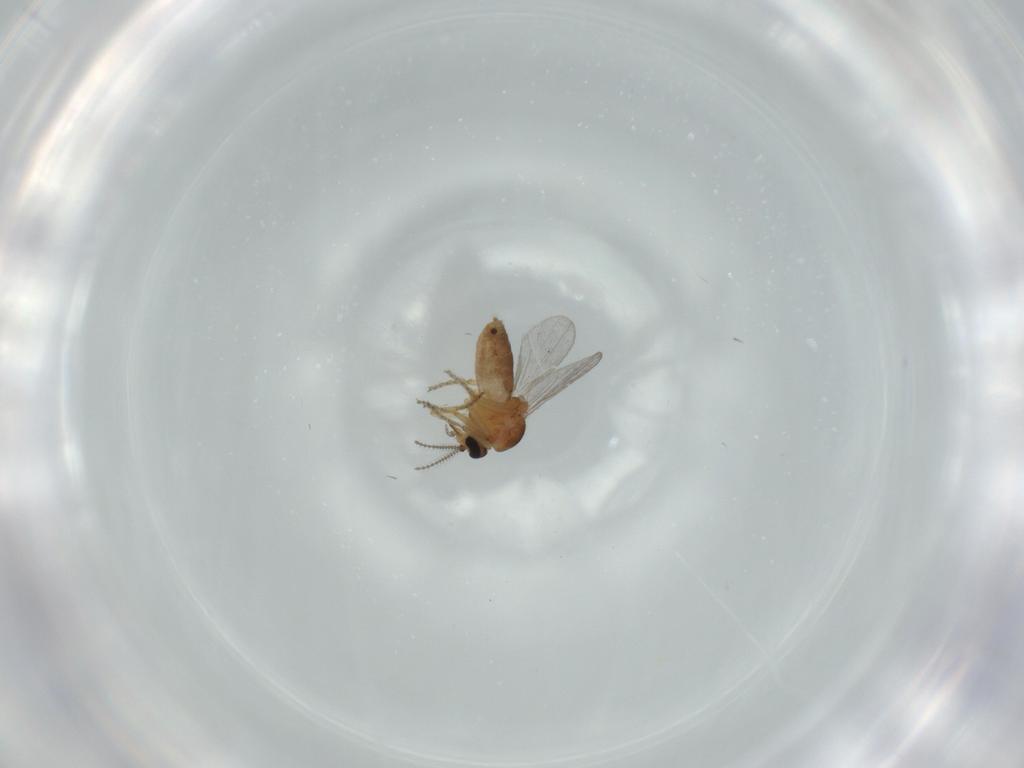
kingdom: Animalia
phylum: Arthropoda
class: Insecta
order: Diptera
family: Ceratopogonidae
